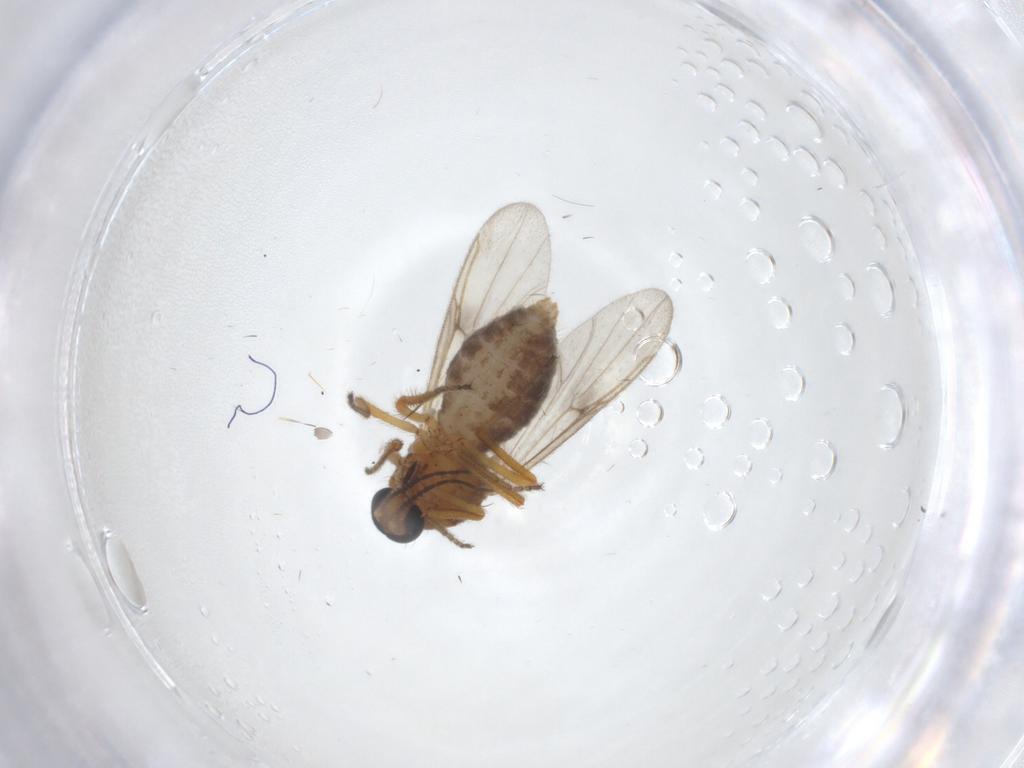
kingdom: Animalia
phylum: Arthropoda
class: Insecta
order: Diptera
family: Ceratopogonidae
